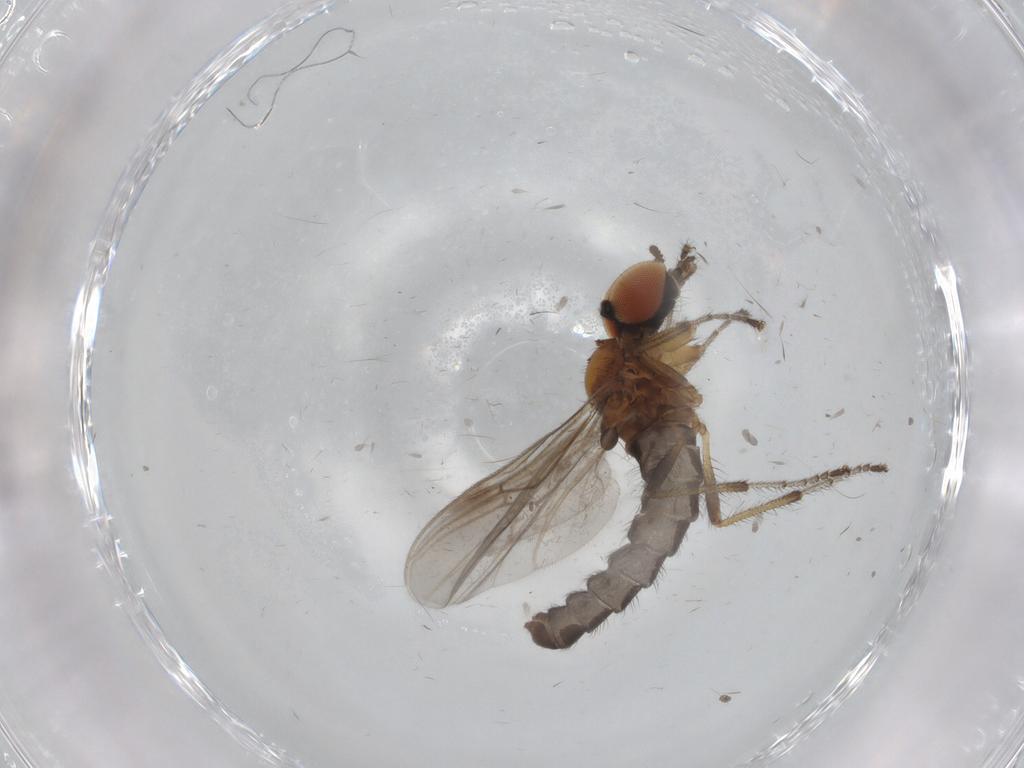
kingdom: Animalia
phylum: Arthropoda
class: Insecta
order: Diptera
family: Bibionidae
